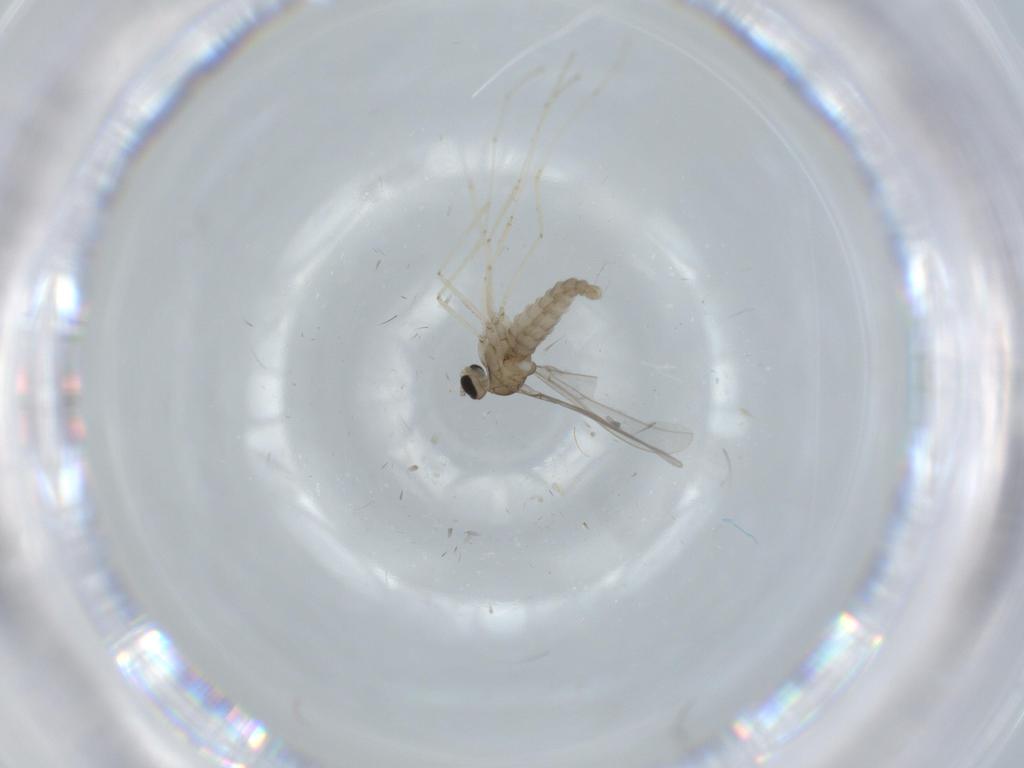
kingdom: Animalia
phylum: Arthropoda
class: Insecta
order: Diptera
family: Cecidomyiidae
